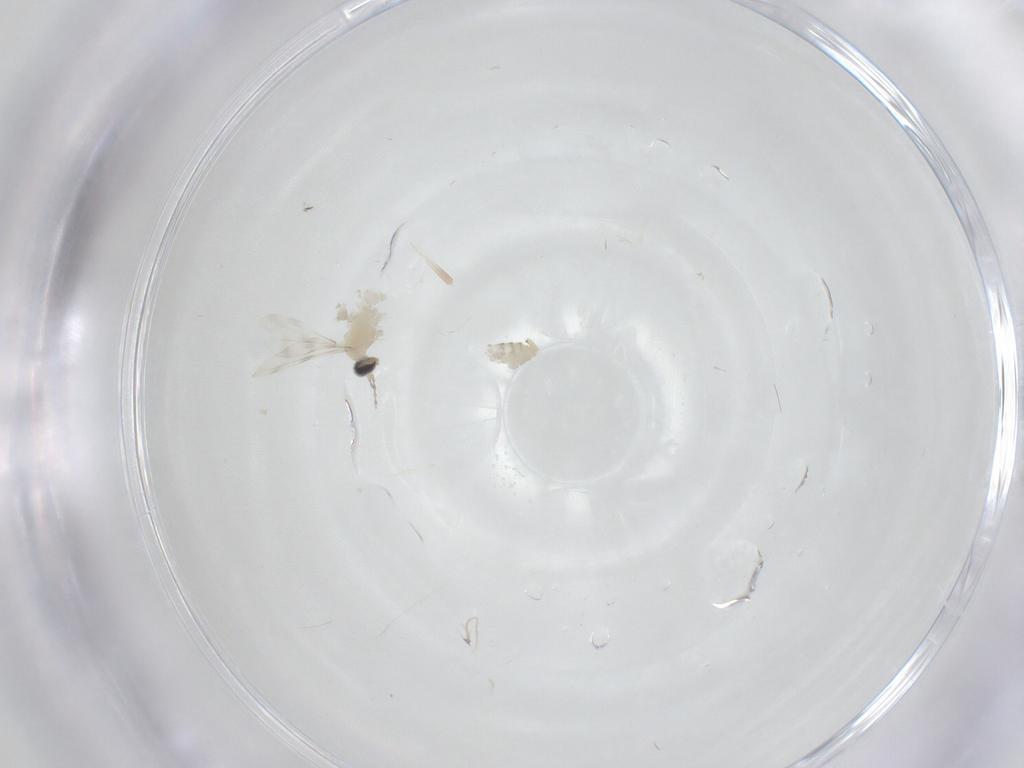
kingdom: Animalia
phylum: Arthropoda
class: Insecta
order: Diptera
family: Cecidomyiidae
